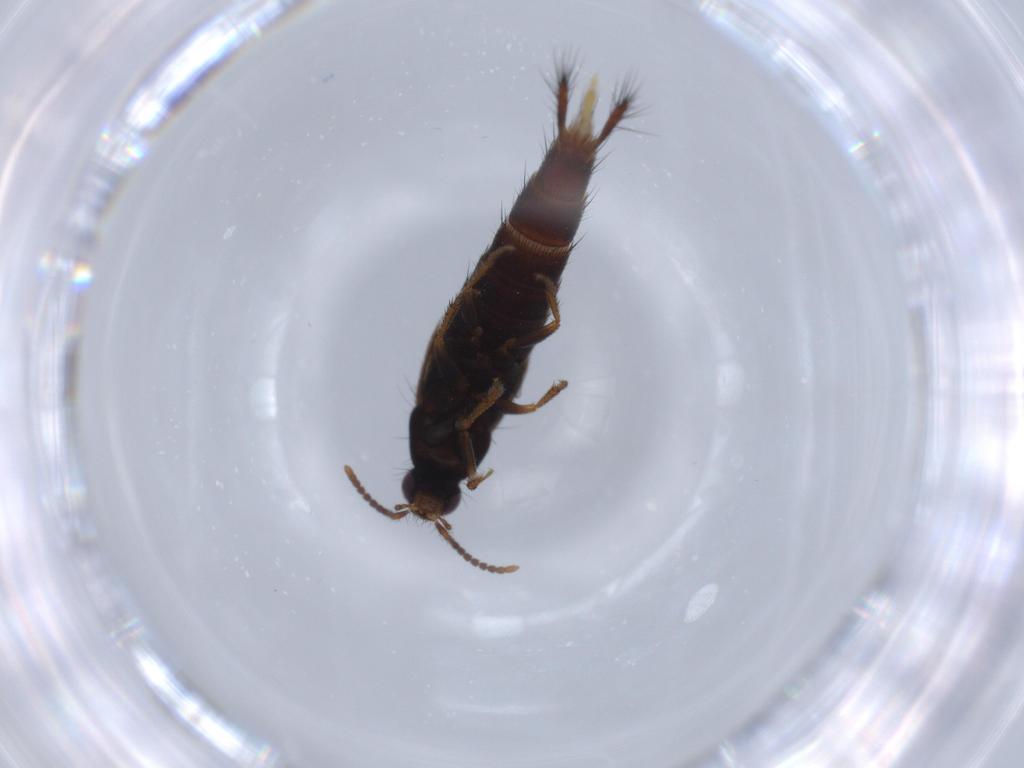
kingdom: Animalia
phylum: Arthropoda
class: Insecta
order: Coleoptera
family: Staphylinidae
